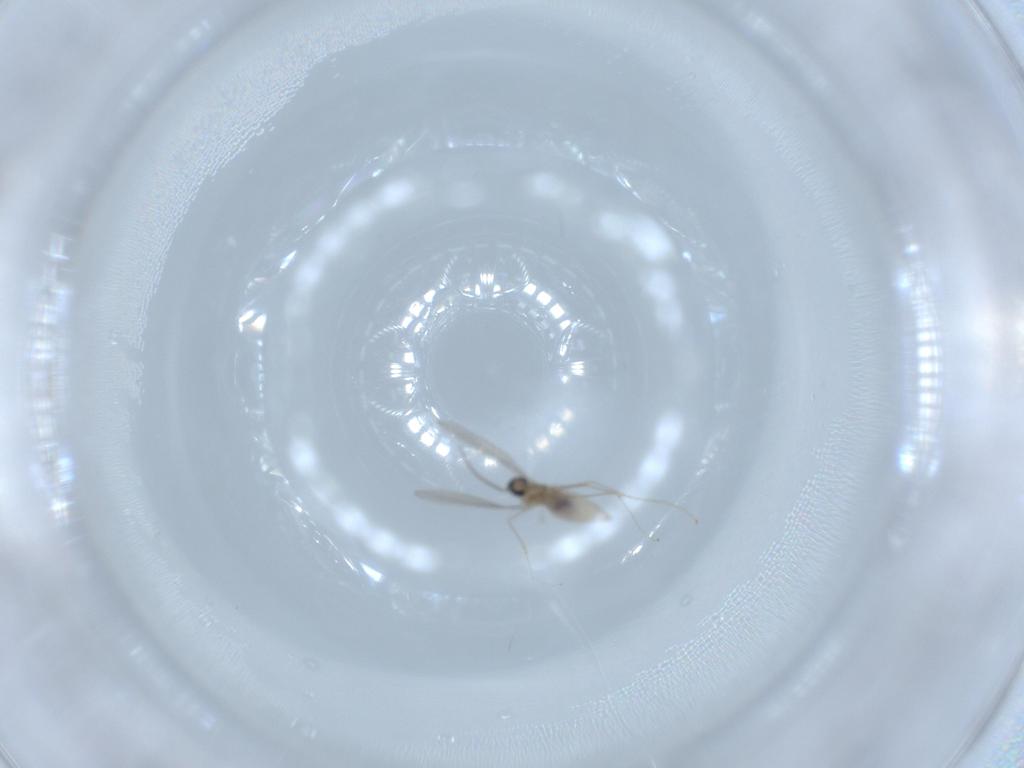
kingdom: Animalia
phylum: Arthropoda
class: Insecta
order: Diptera
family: Cecidomyiidae
